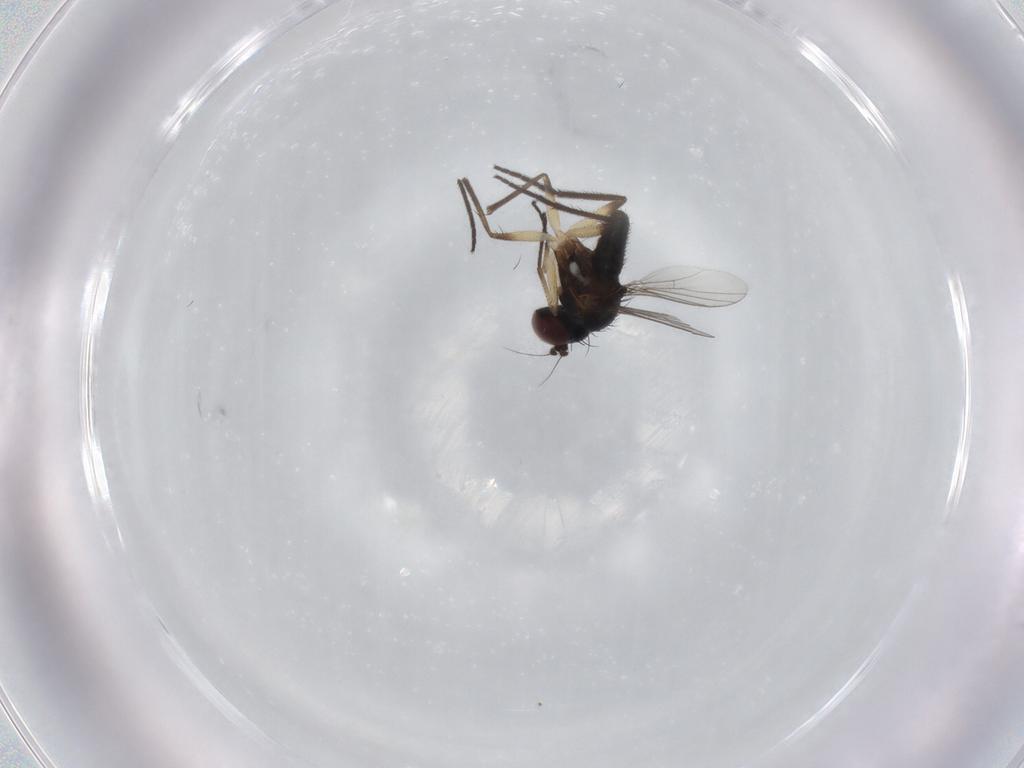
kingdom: Animalia
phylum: Arthropoda
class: Insecta
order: Diptera
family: Dolichopodidae
